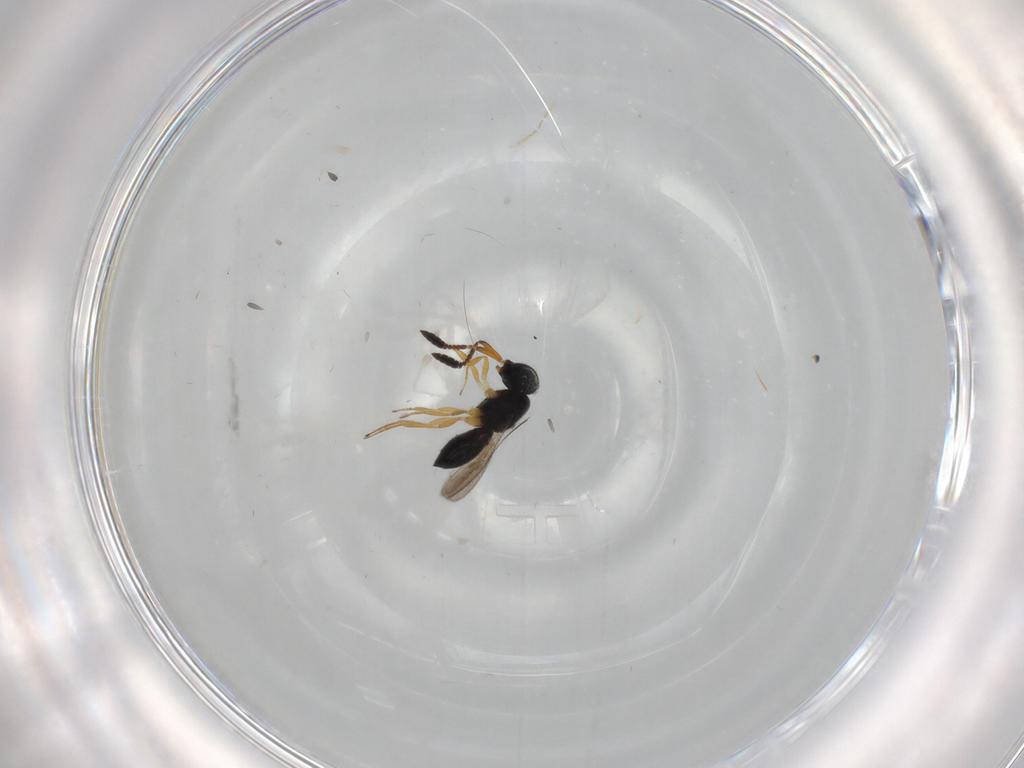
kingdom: Animalia
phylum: Arthropoda
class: Insecta
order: Hymenoptera
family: Scelionidae
